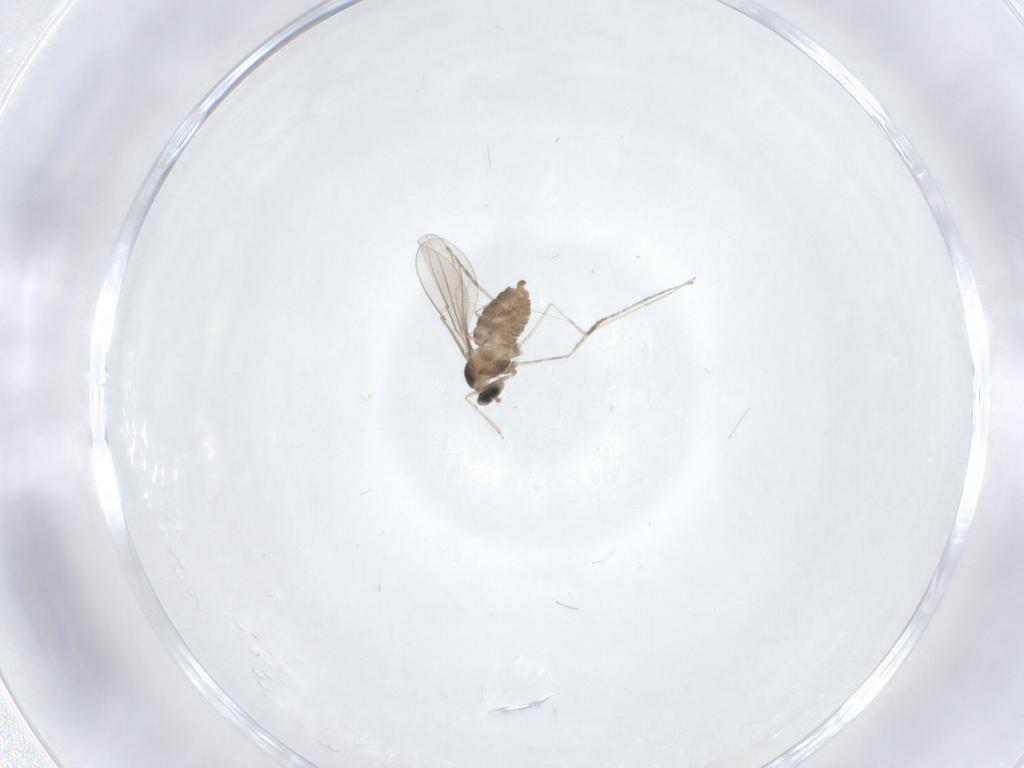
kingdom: Animalia
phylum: Arthropoda
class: Insecta
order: Diptera
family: Cecidomyiidae
